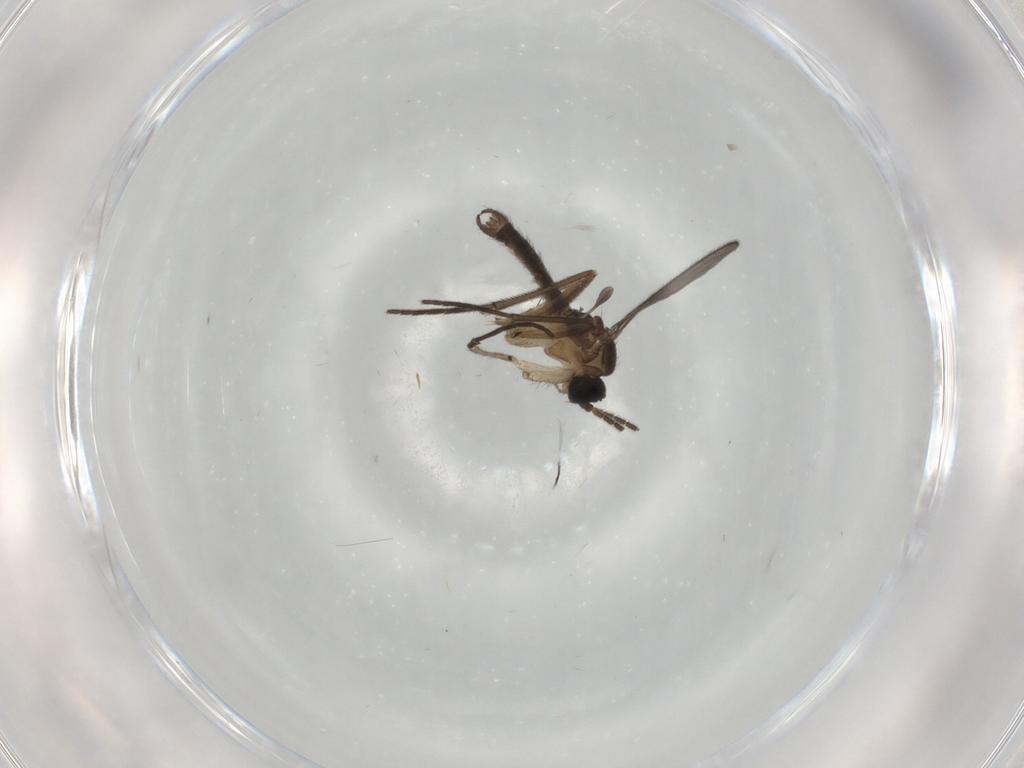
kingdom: Animalia
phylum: Arthropoda
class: Insecta
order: Diptera
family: Sciaridae
